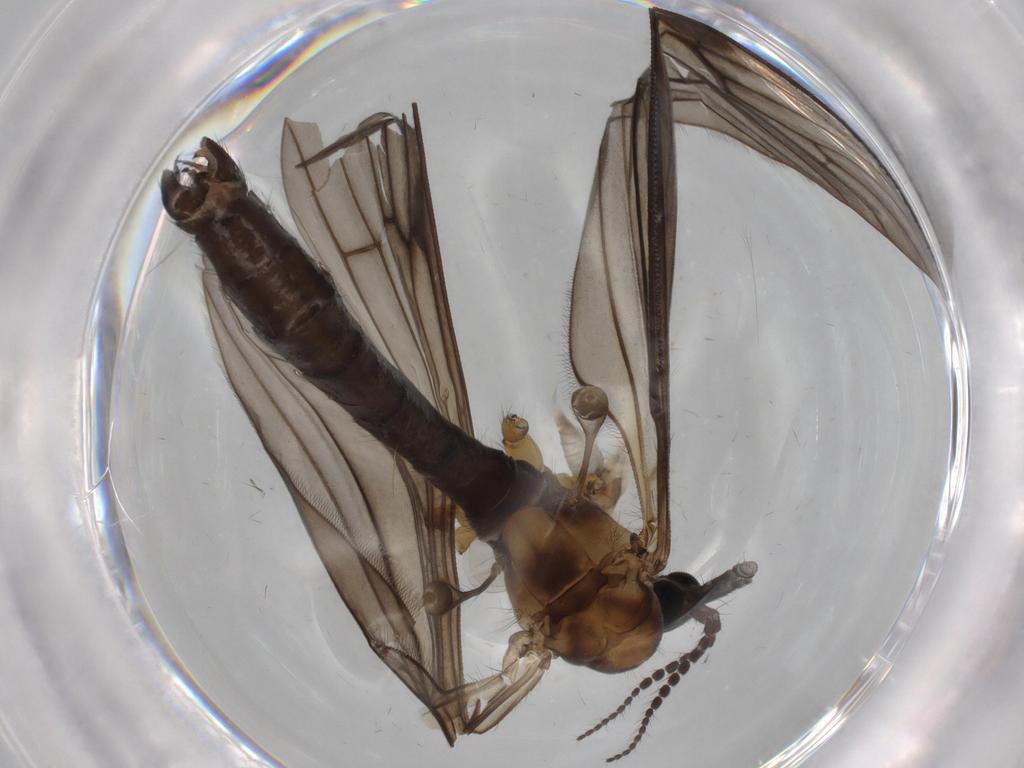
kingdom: Animalia
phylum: Arthropoda
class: Insecta
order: Diptera
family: Limoniidae
